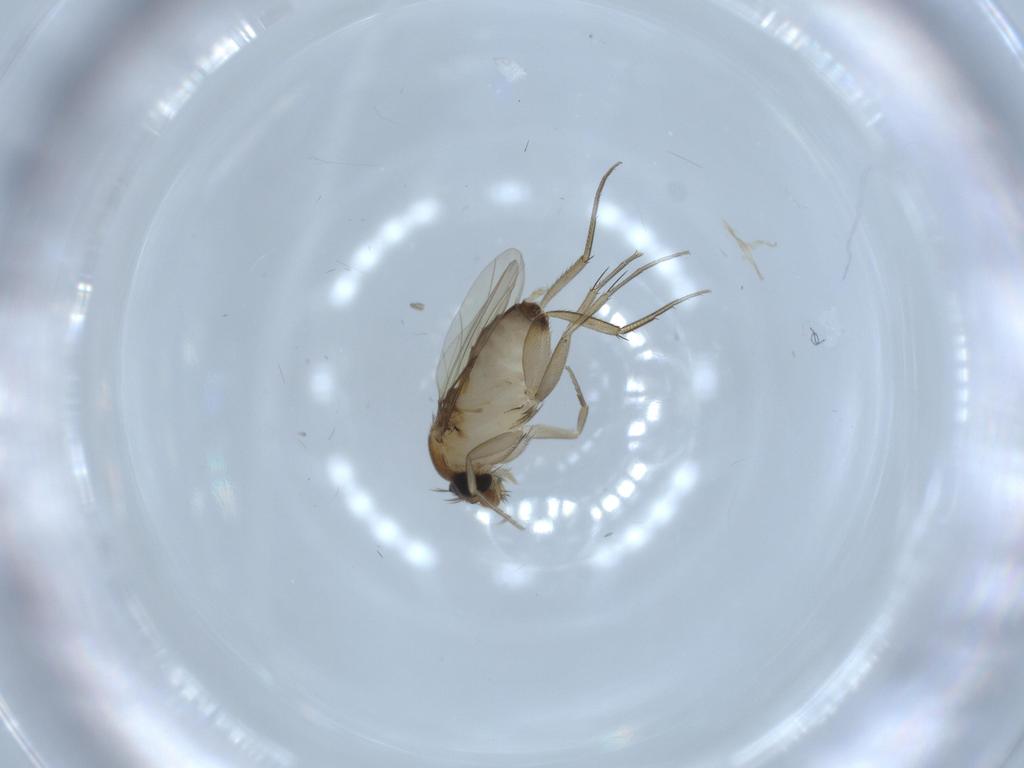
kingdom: Animalia
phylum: Arthropoda
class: Insecta
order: Diptera
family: Phoridae
